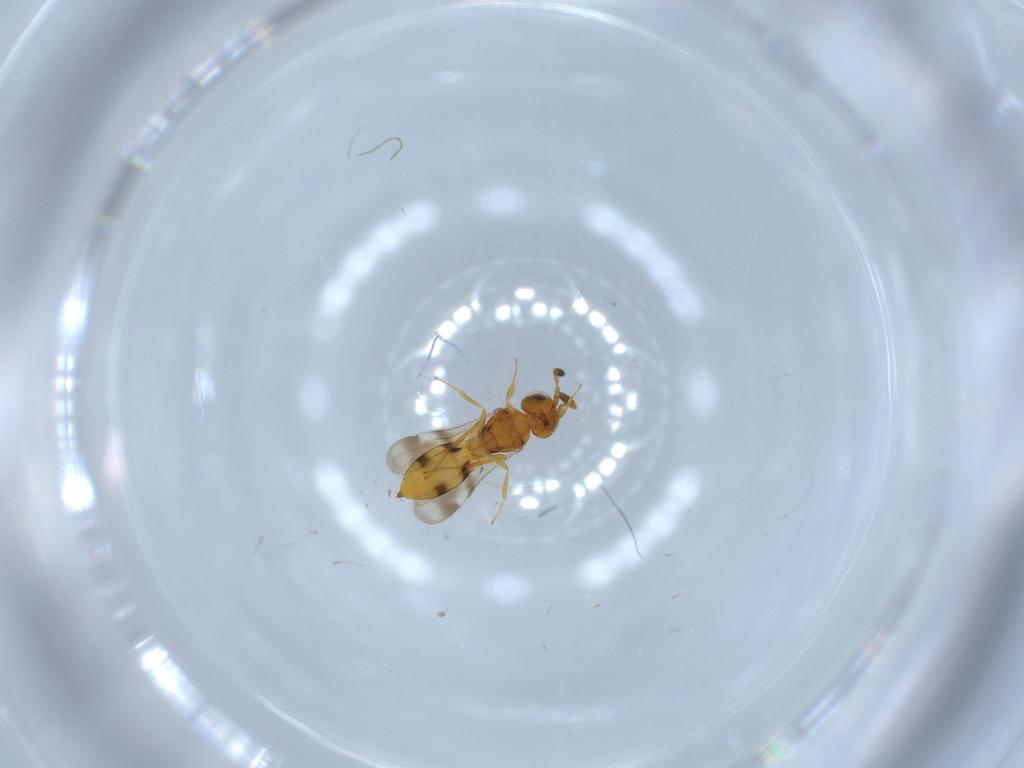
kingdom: Animalia
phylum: Arthropoda
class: Insecta
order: Hymenoptera
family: Scelionidae
